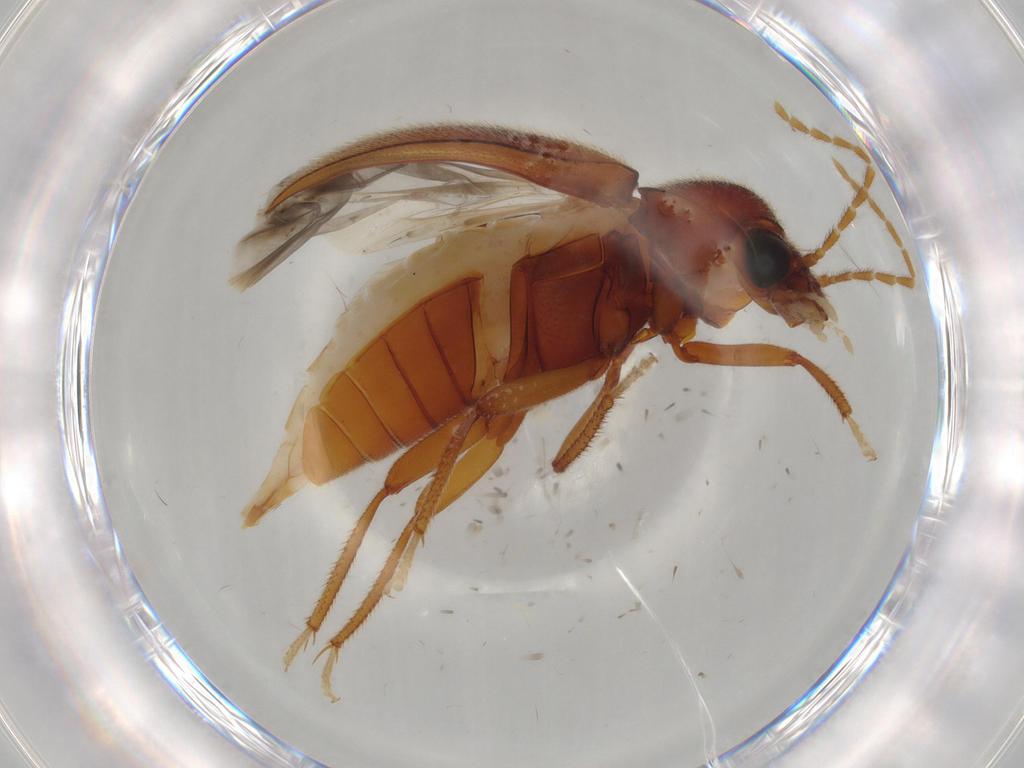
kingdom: Animalia
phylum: Arthropoda
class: Insecta
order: Coleoptera
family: Ptilodactylidae
